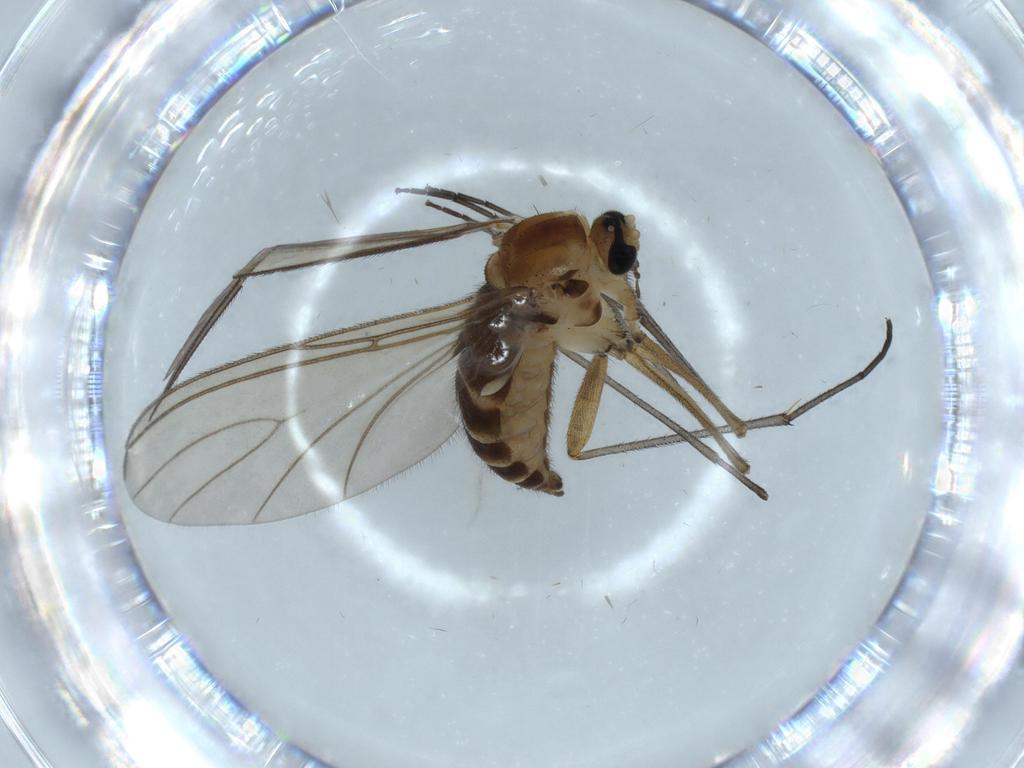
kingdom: Animalia
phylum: Arthropoda
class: Insecta
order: Diptera
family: Sciaridae
